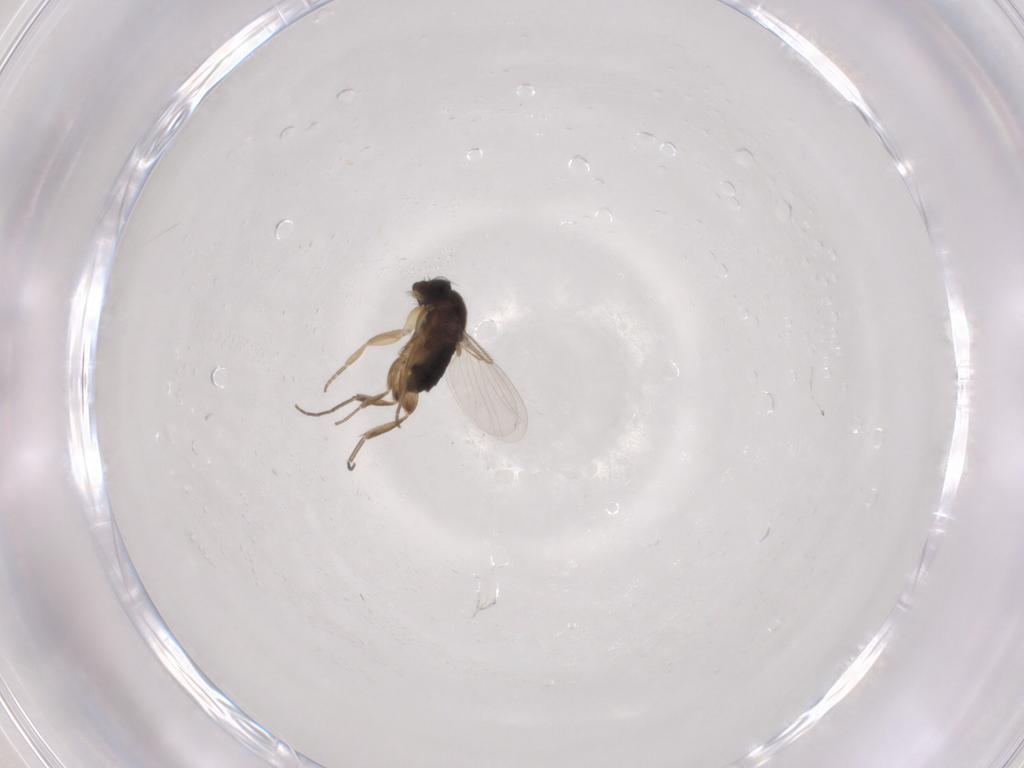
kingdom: Animalia
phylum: Arthropoda
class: Insecta
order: Diptera
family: Phoridae
